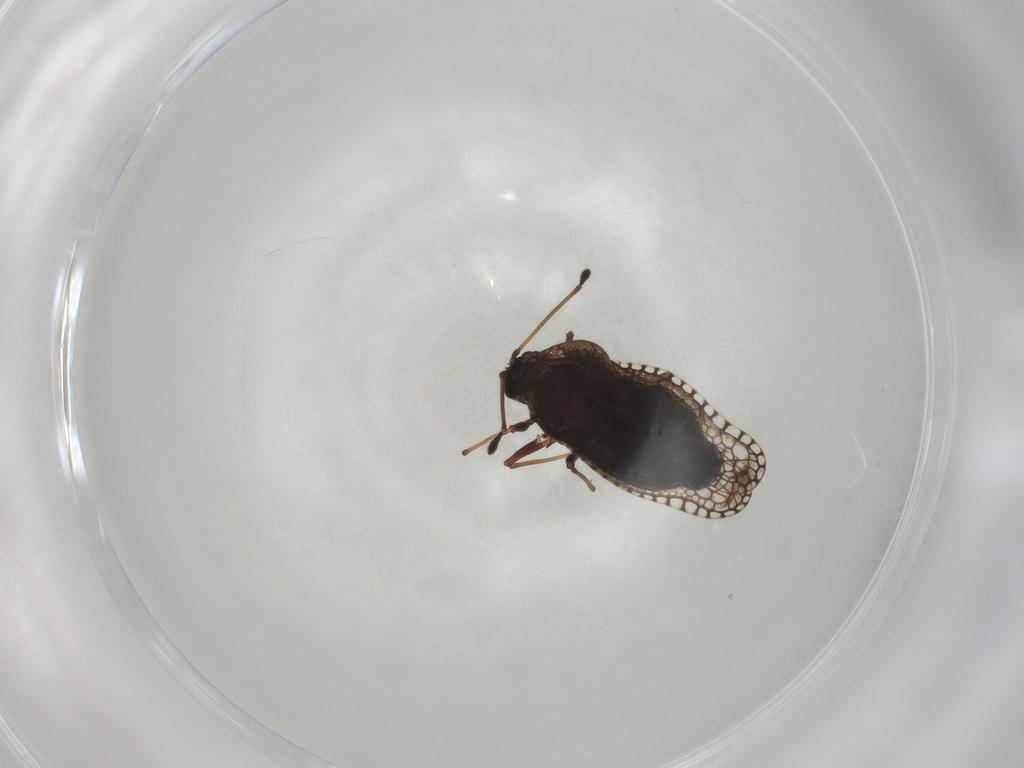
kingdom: Animalia
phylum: Arthropoda
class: Insecta
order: Hemiptera
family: Tingidae
